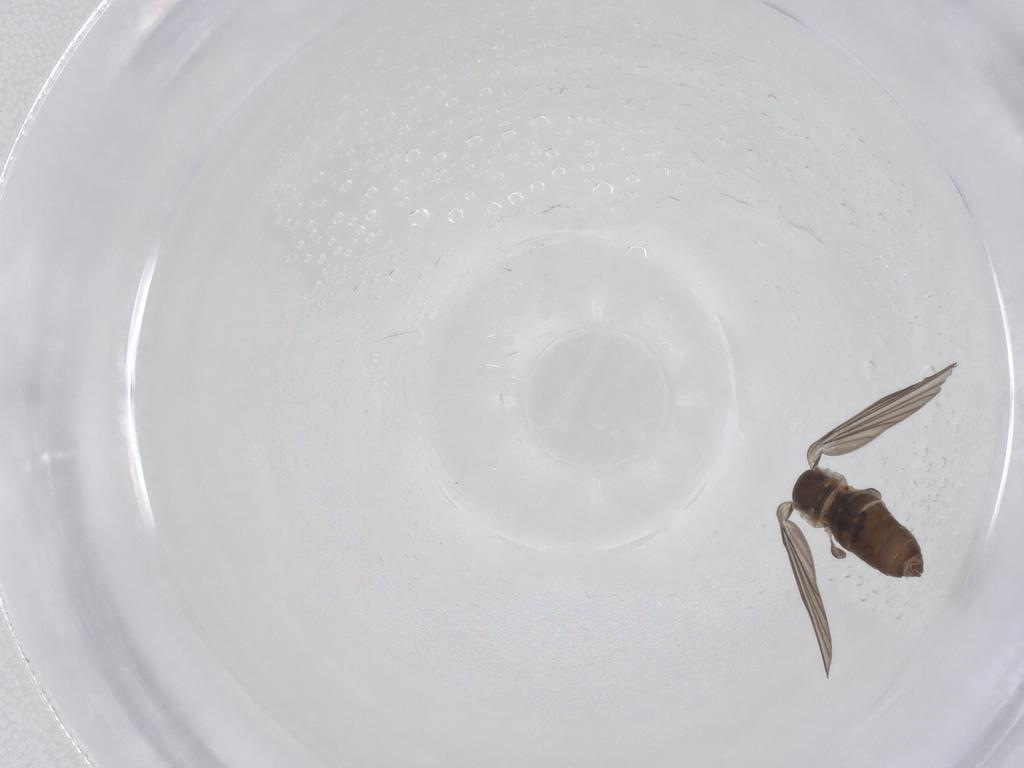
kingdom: Animalia
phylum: Arthropoda
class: Insecta
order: Diptera
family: Psychodidae
